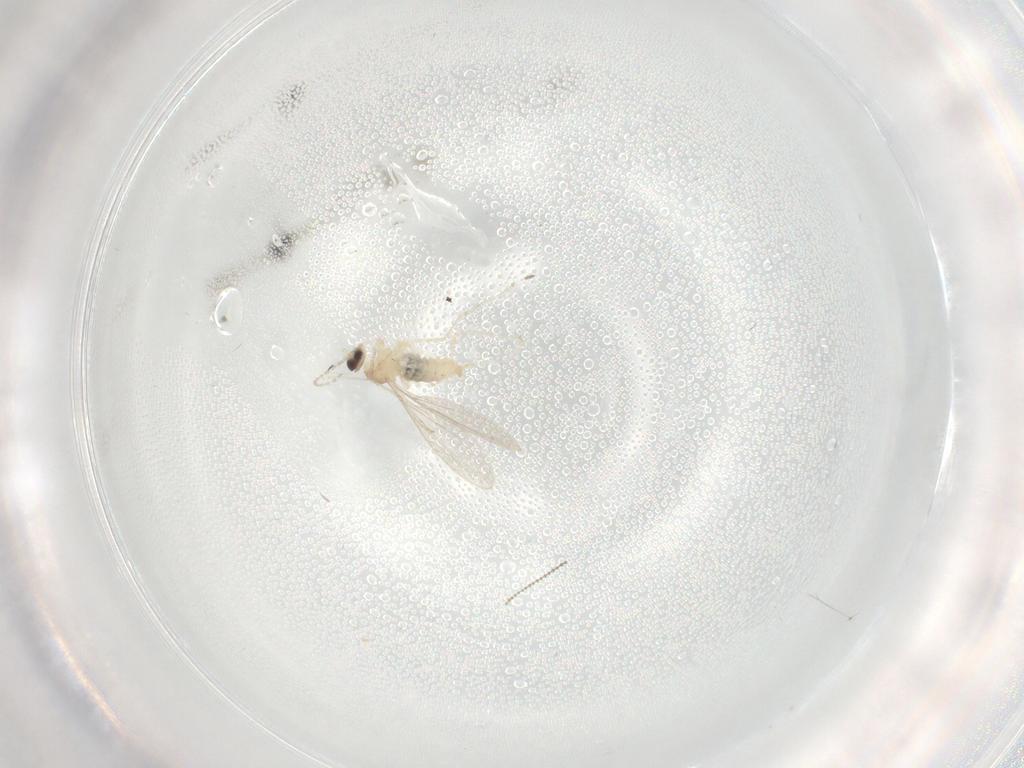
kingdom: Animalia
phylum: Arthropoda
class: Insecta
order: Diptera
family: Cecidomyiidae
